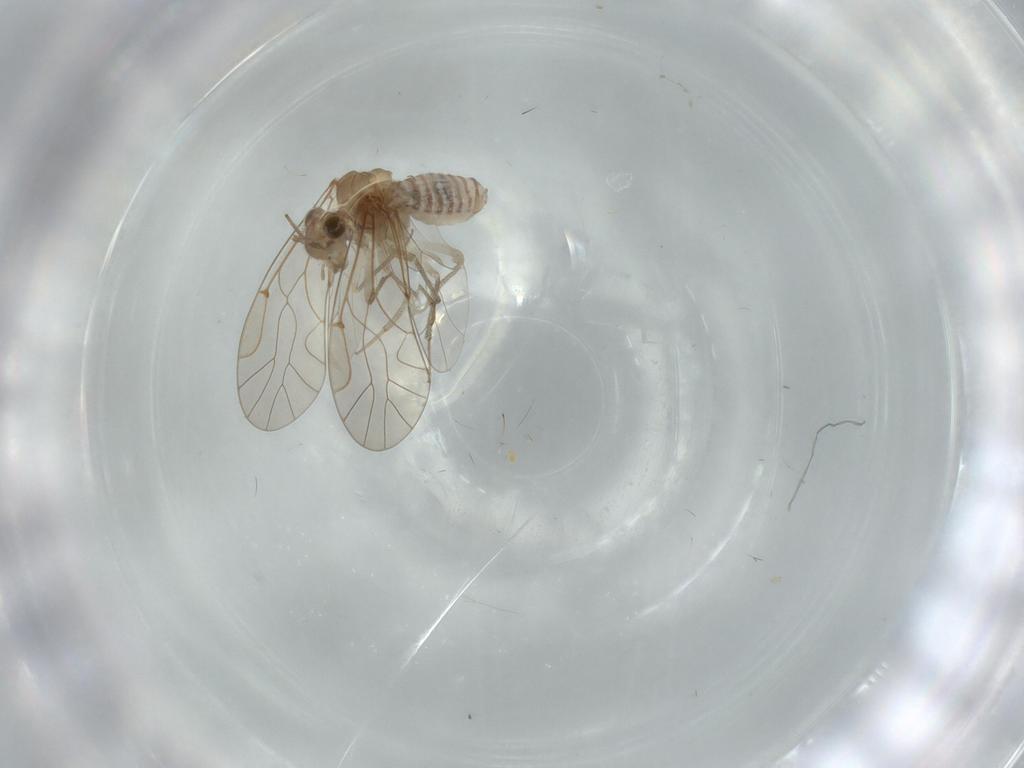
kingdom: Animalia
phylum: Arthropoda
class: Insecta
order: Psocodea
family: Lachesillidae
